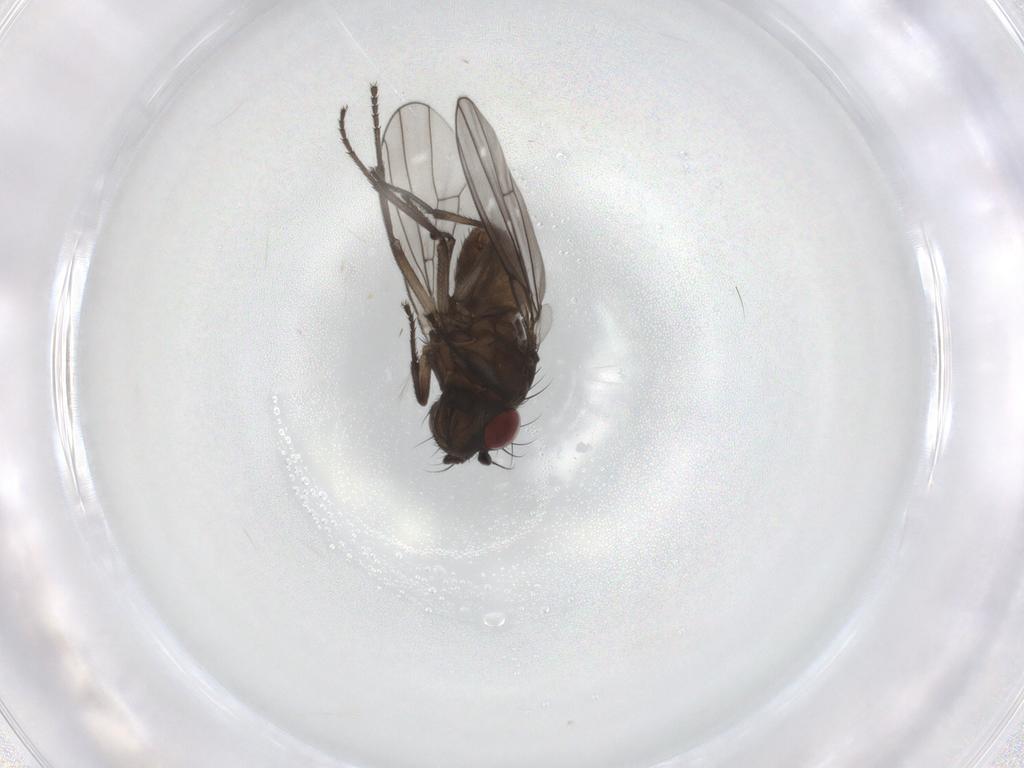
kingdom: Animalia
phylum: Arthropoda
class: Insecta
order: Diptera
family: Ephydridae
